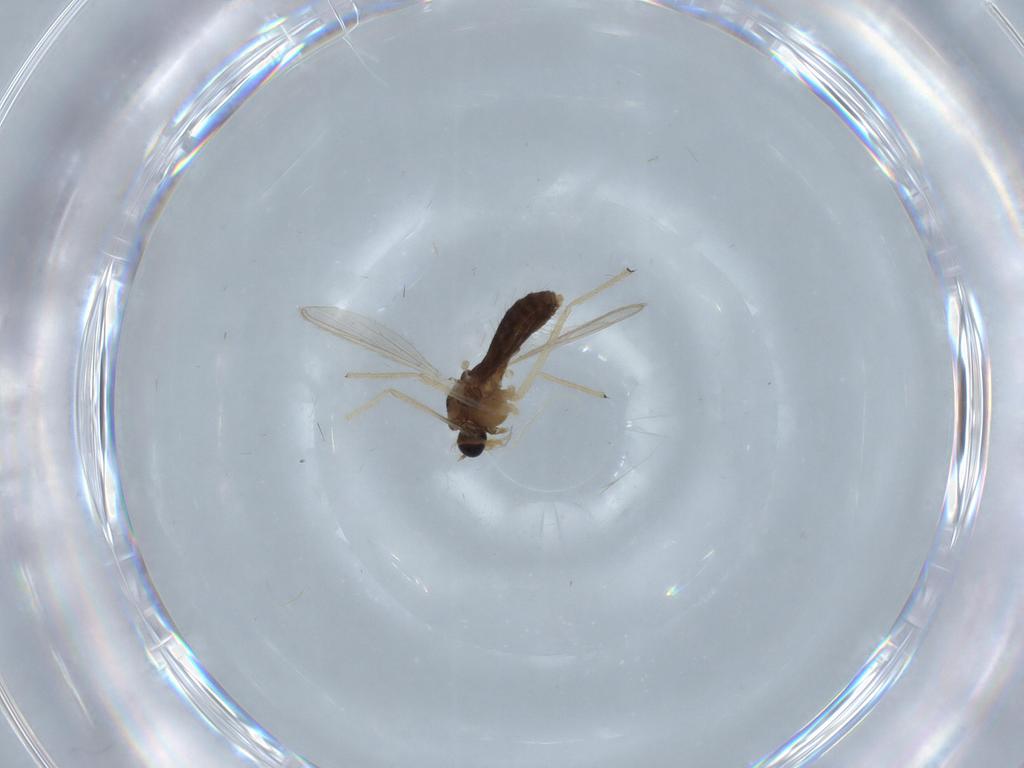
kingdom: Animalia
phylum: Arthropoda
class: Insecta
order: Diptera
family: Chironomidae
